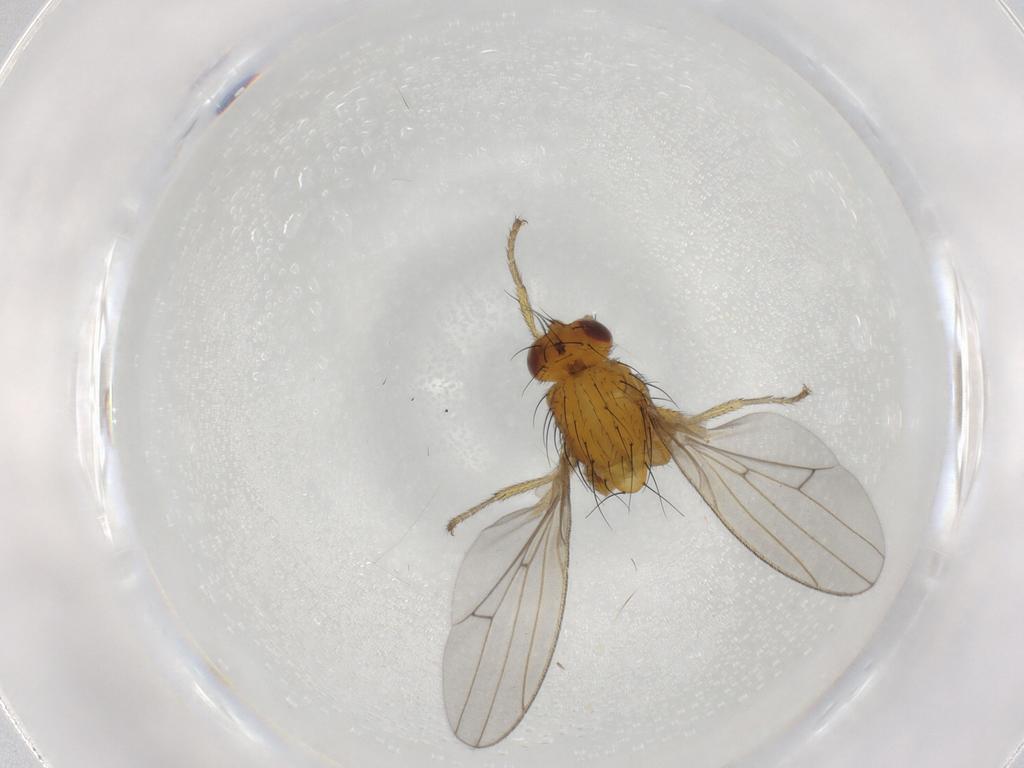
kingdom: Animalia
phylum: Arthropoda
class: Insecta
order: Diptera
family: Sciaridae
